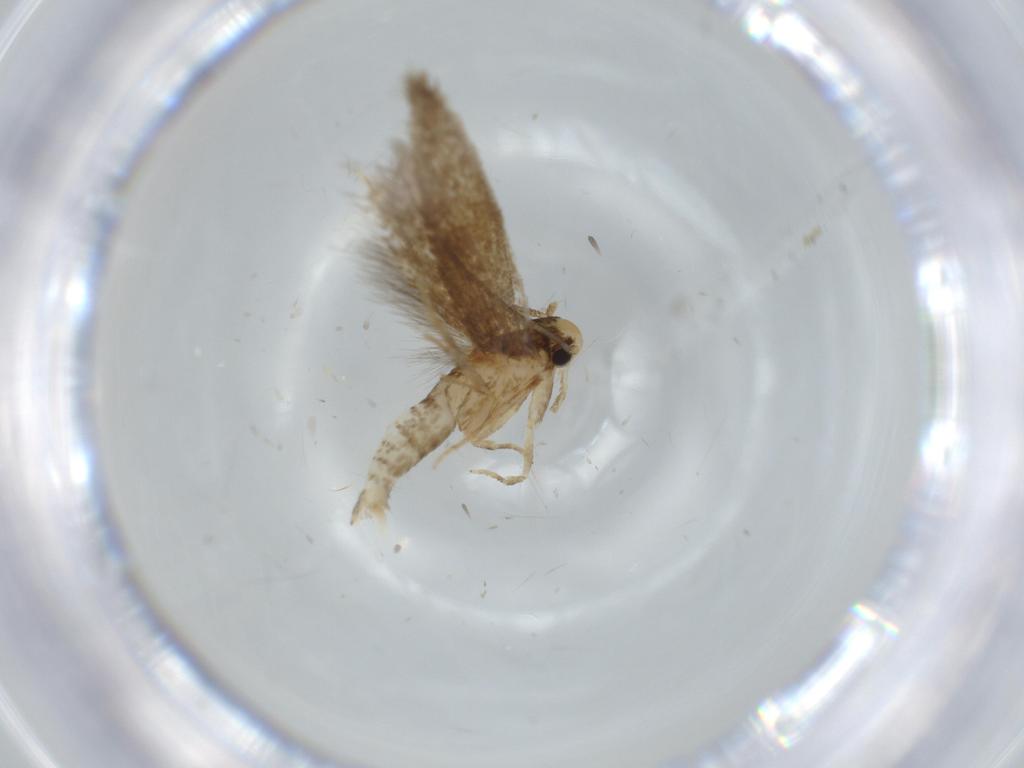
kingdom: Animalia
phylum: Arthropoda
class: Insecta
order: Lepidoptera
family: Tineidae
